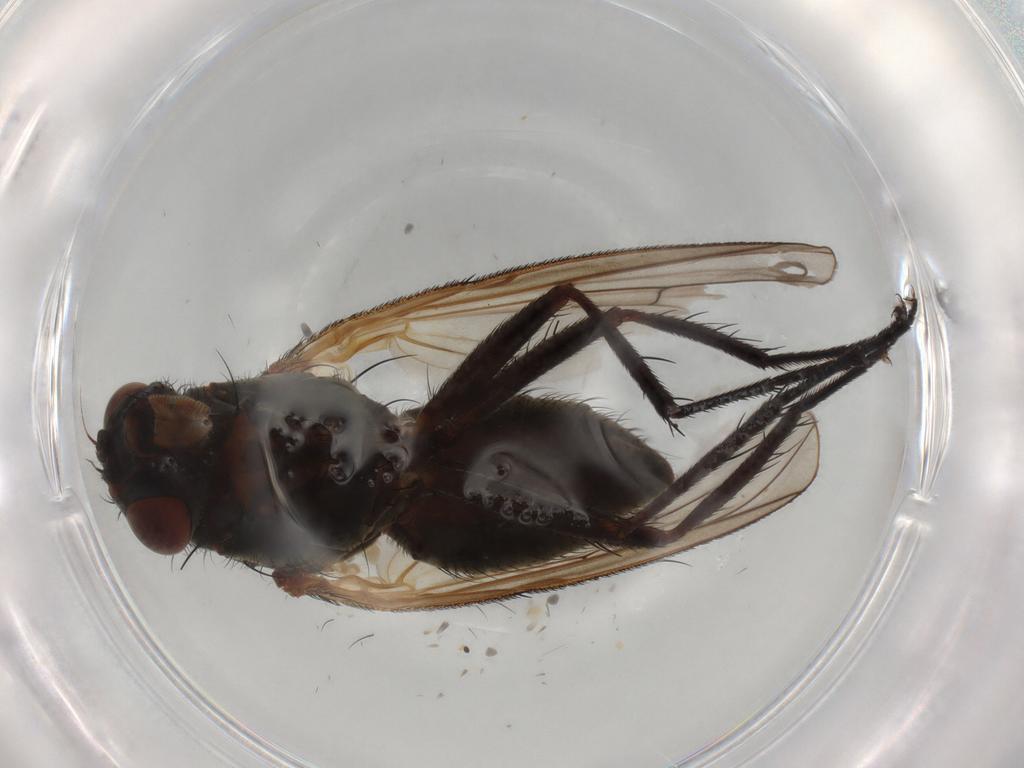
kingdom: Animalia
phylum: Arthropoda
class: Insecta
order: Diptera
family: Anthomyiidae
